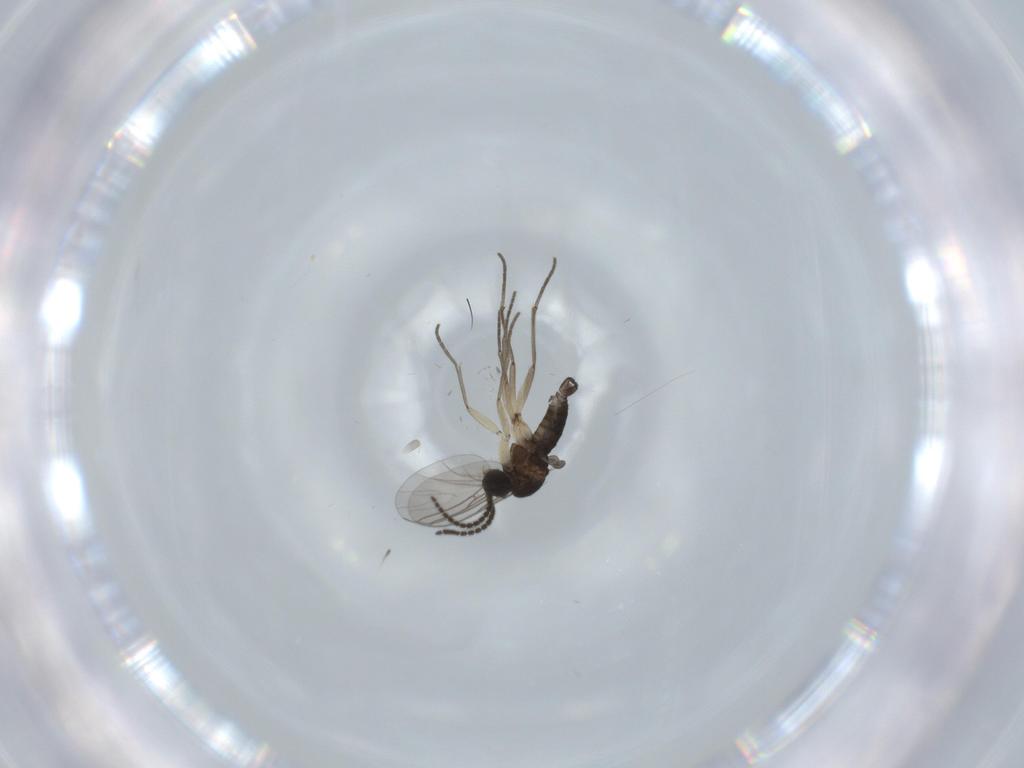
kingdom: Animalia
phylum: Arthropoda
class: Insecta
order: Diptera
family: Sciaridae
